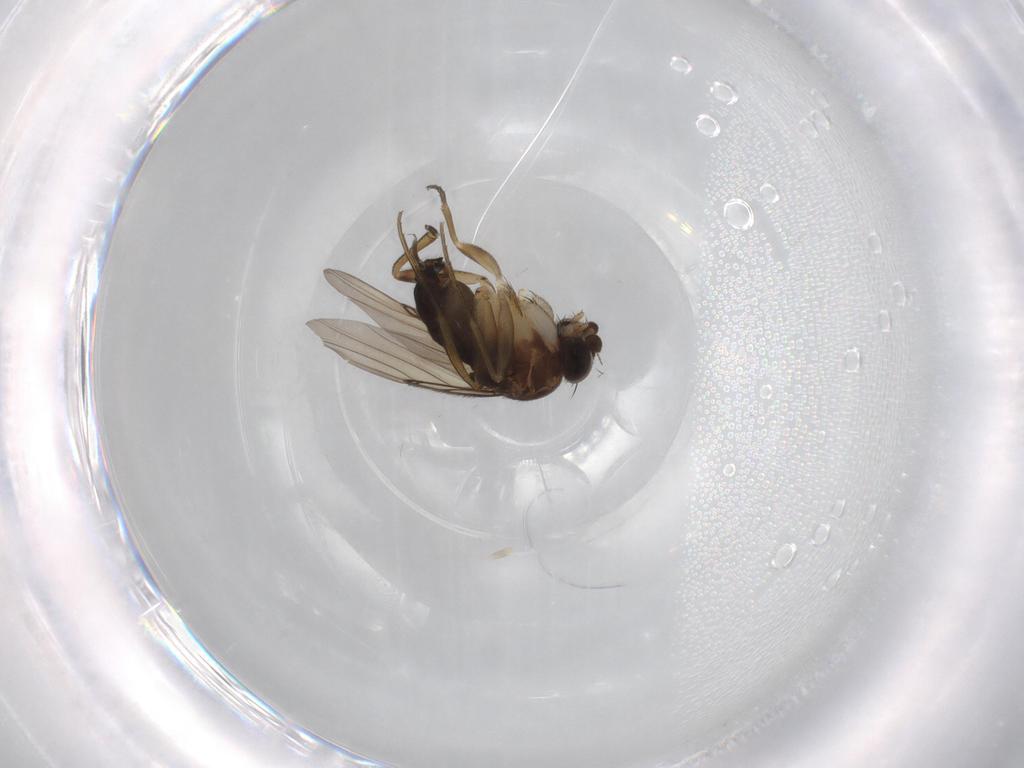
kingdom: Animalia
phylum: Arthropoda
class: Insecta
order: Diptera
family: Phoridae
